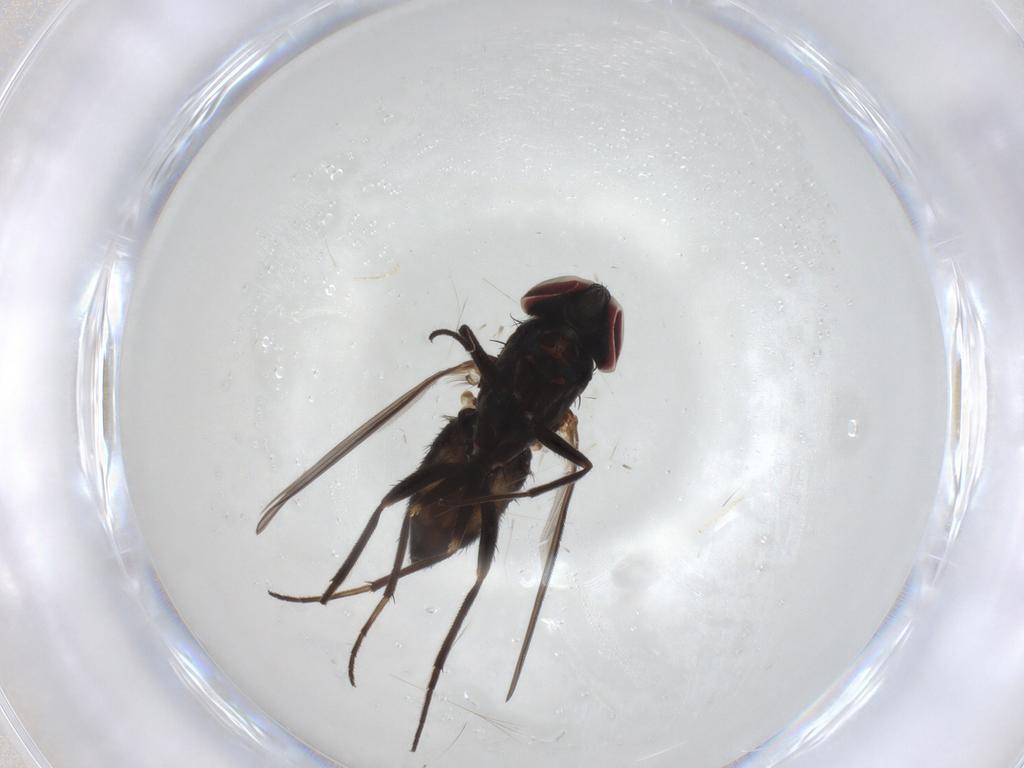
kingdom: Animalia
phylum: Arthropoda
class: Insecta
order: Diptera
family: Dolichopodidae
